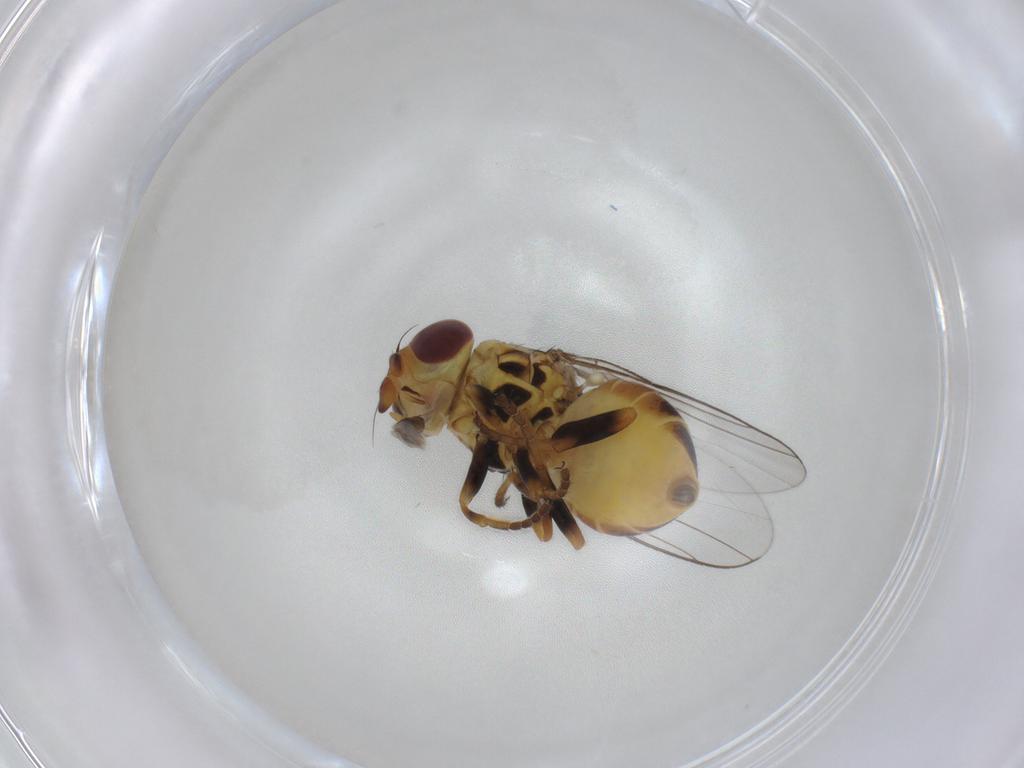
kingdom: Animalia
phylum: Arthropoda
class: Insecta
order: Diptera
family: Chloropidae
